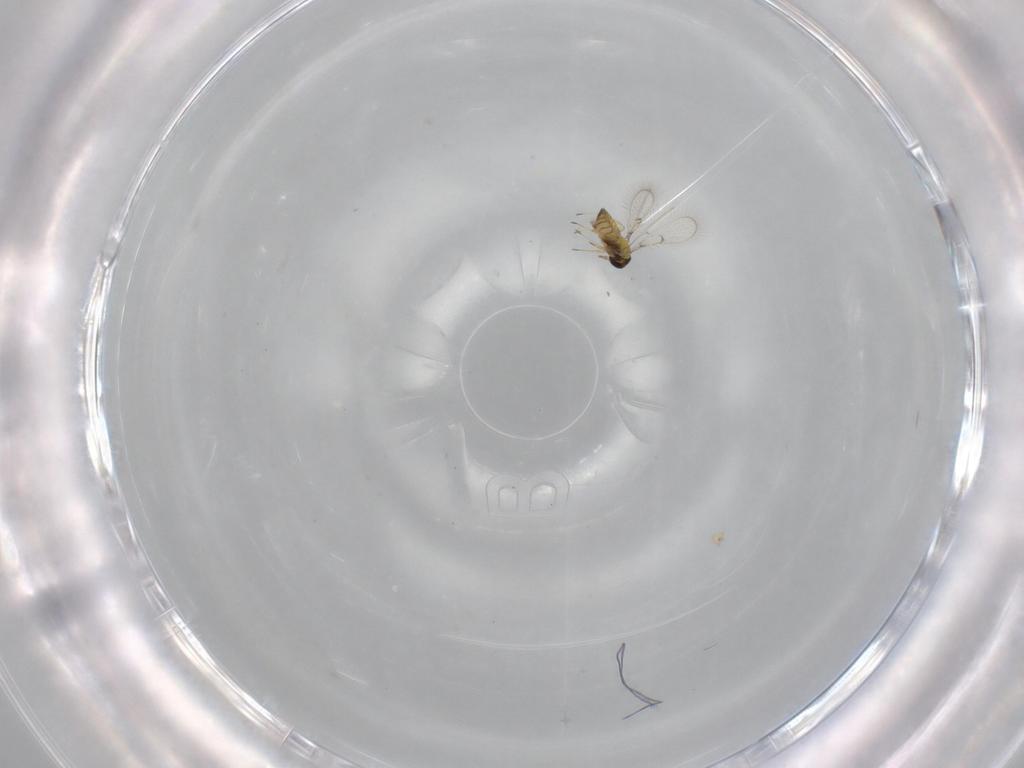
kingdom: Animalia
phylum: Arthropoda
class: Insecta
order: Hymenoptera
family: Trichogrammatidae
